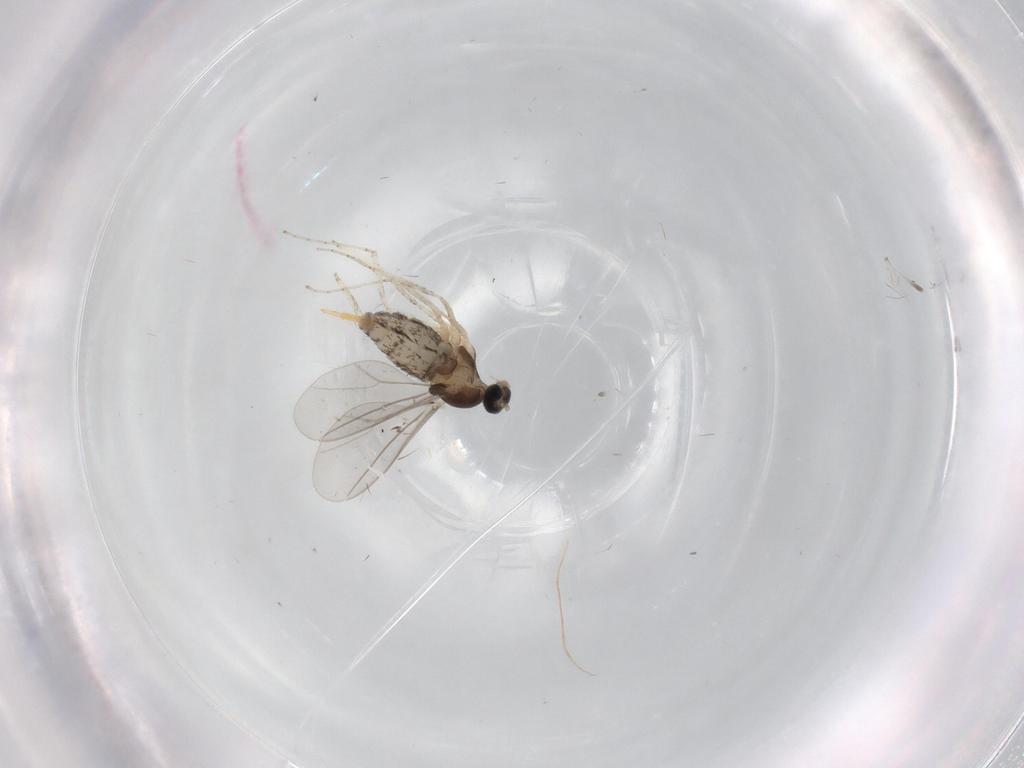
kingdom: Animalia
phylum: Arthropoda
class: Insecta
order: Diptera
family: Cecidomyiidae
